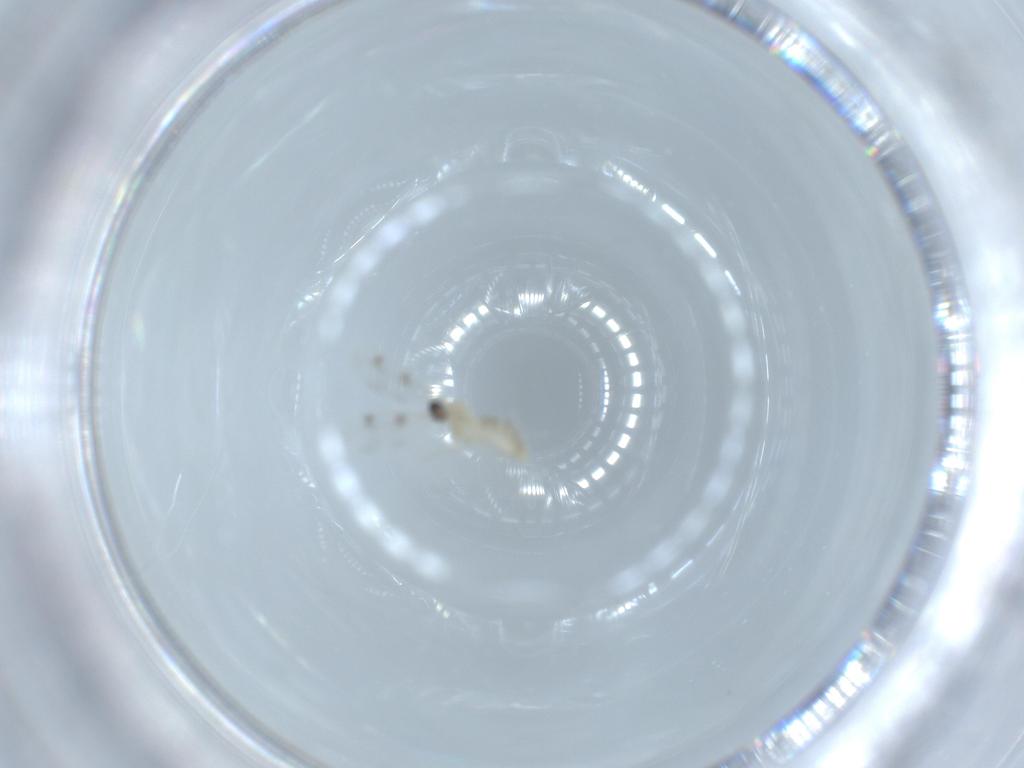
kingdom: Animalia
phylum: Arthropoda
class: Insecta
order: Diptera
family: Cecidomyiidae
